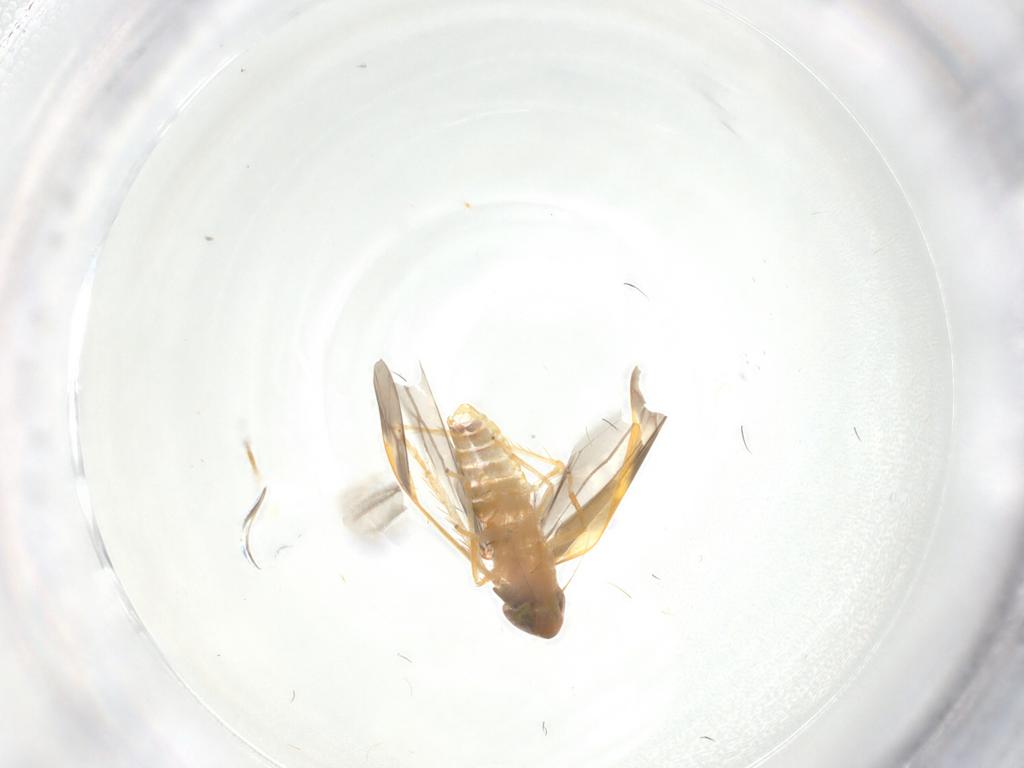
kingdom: Animalia
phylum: Arthropoda
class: Insecta
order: Hemiptera
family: Cicadellidae
